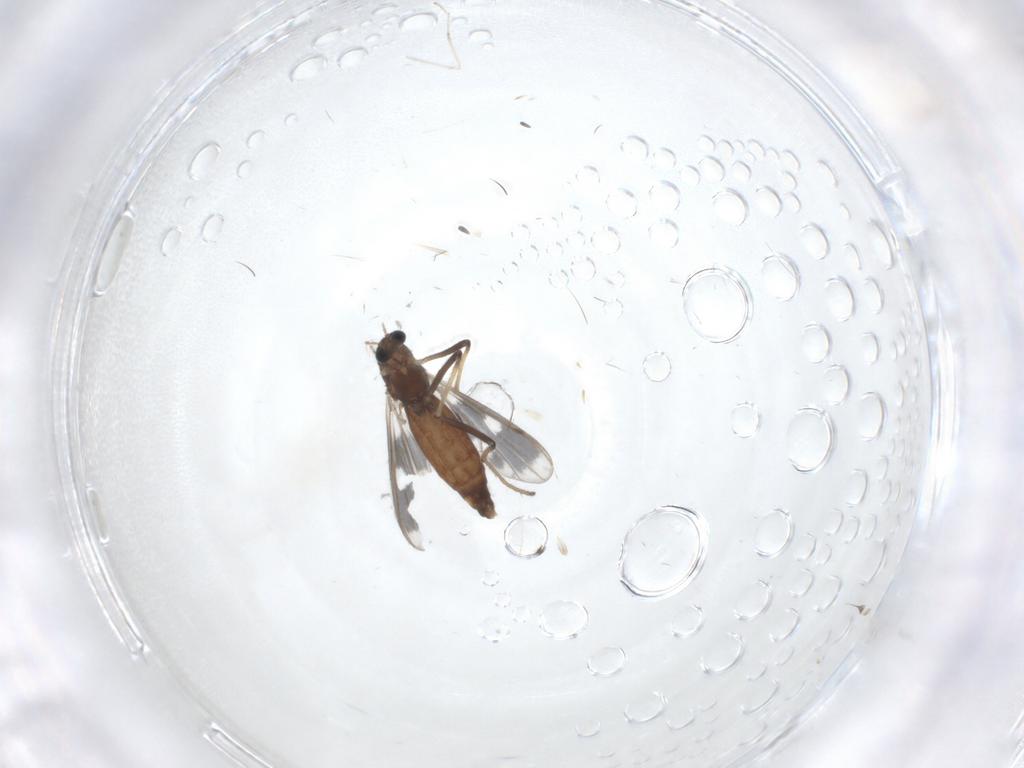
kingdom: Animalia
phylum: Arthropoda
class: Insecta
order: Diptera
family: Chironomidae
